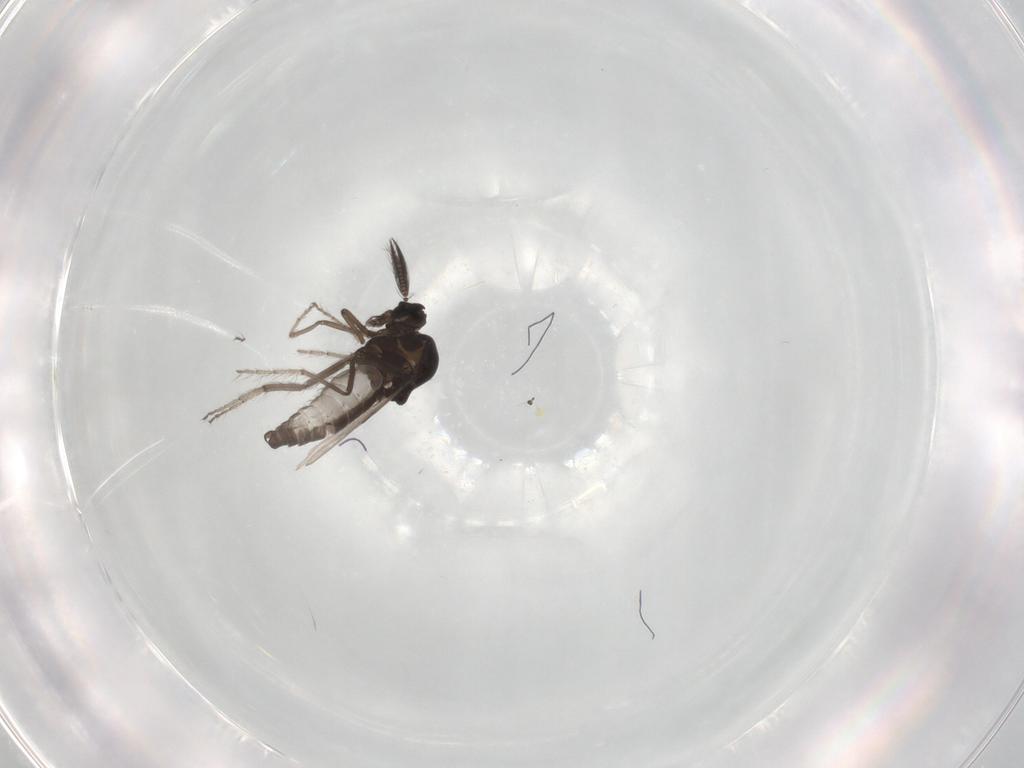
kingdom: Animalia
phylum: Arthropoda
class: Insecta
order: Diptera
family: Ceratopogonidae
